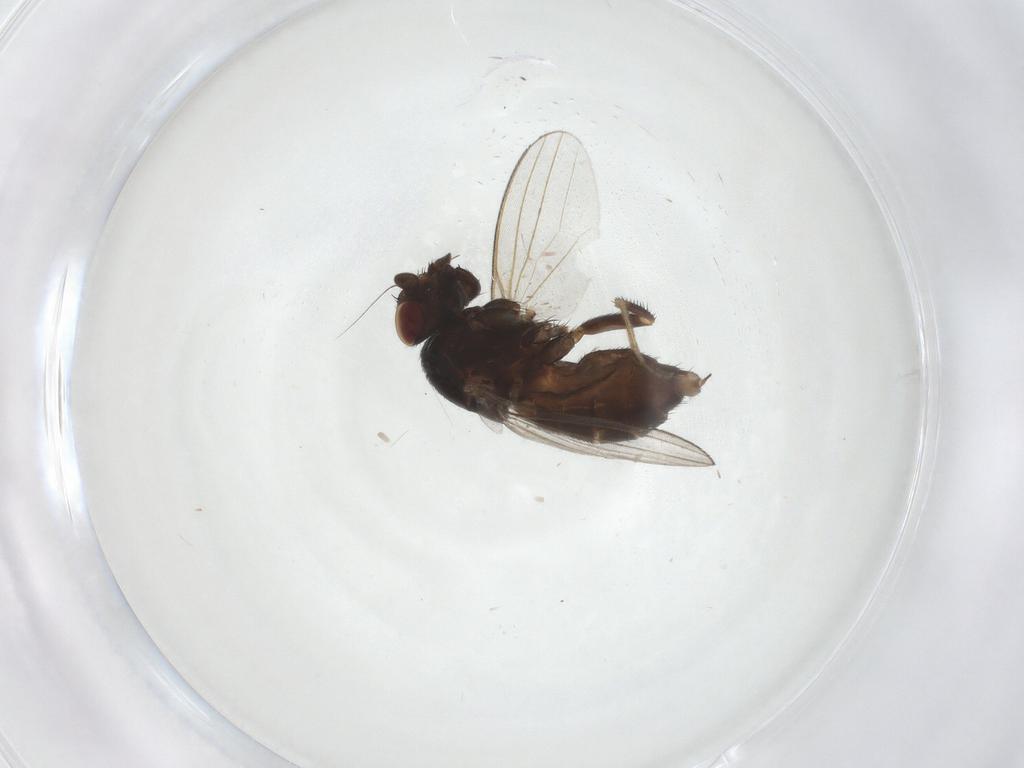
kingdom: Animalia
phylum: Arthropoda
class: Insecta
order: Diptera
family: Milichiidae
